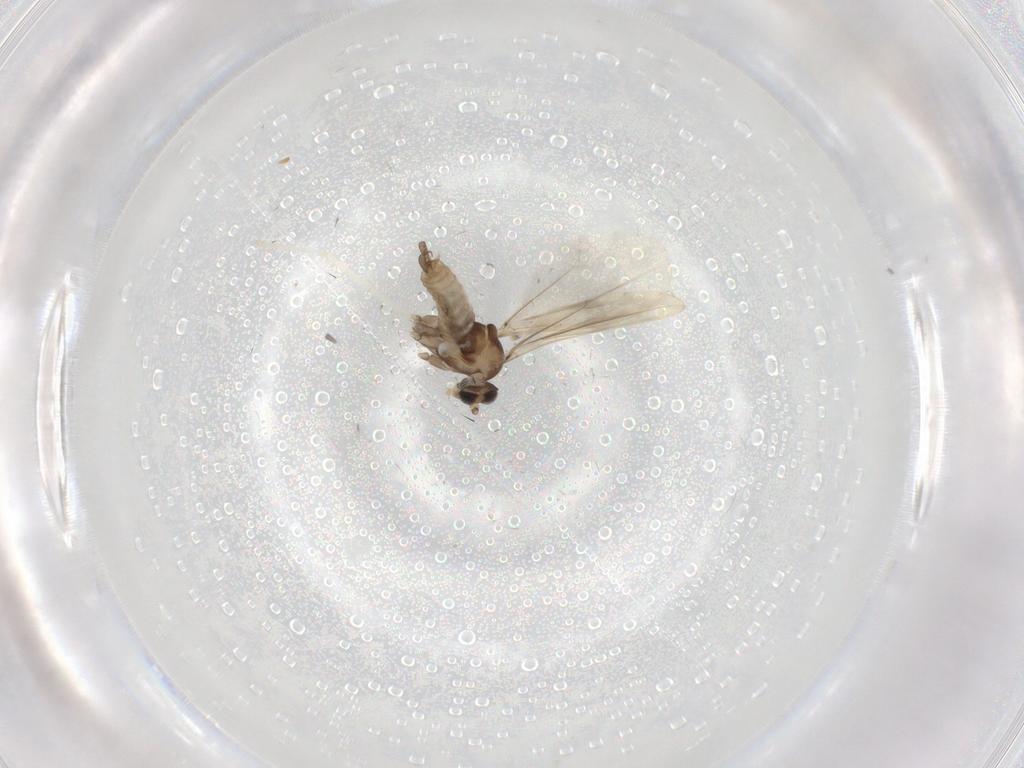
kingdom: Animalia
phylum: Arthropoda
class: Insecta
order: Diptera
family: Cecidomyiidae
